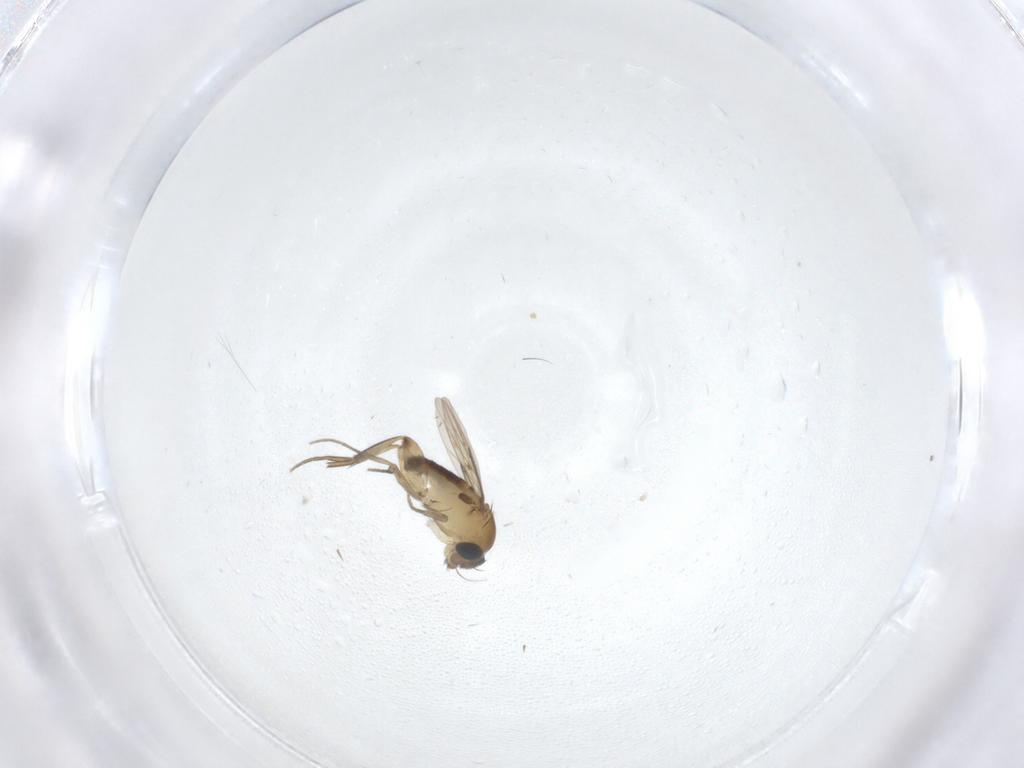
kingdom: Animalia
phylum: Arthropoda
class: Insecta
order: Diptera
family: Phoridae
